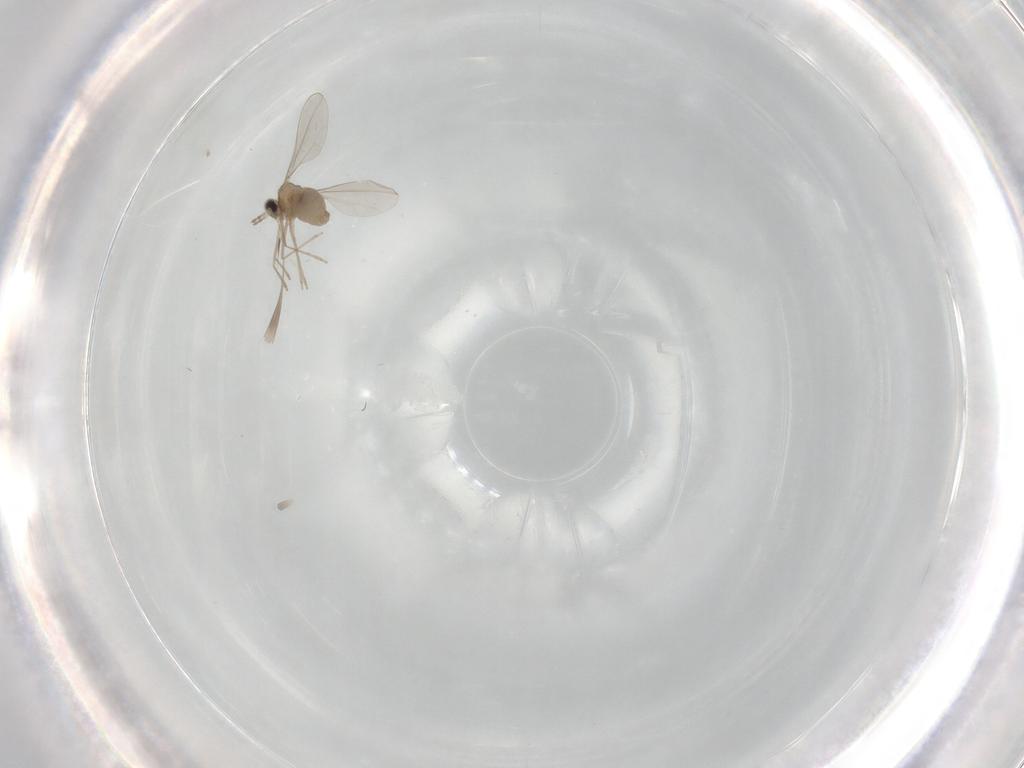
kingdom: Animalia
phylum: Arthropoda
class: Insecta
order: Diptera
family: Cecidomyiidae
